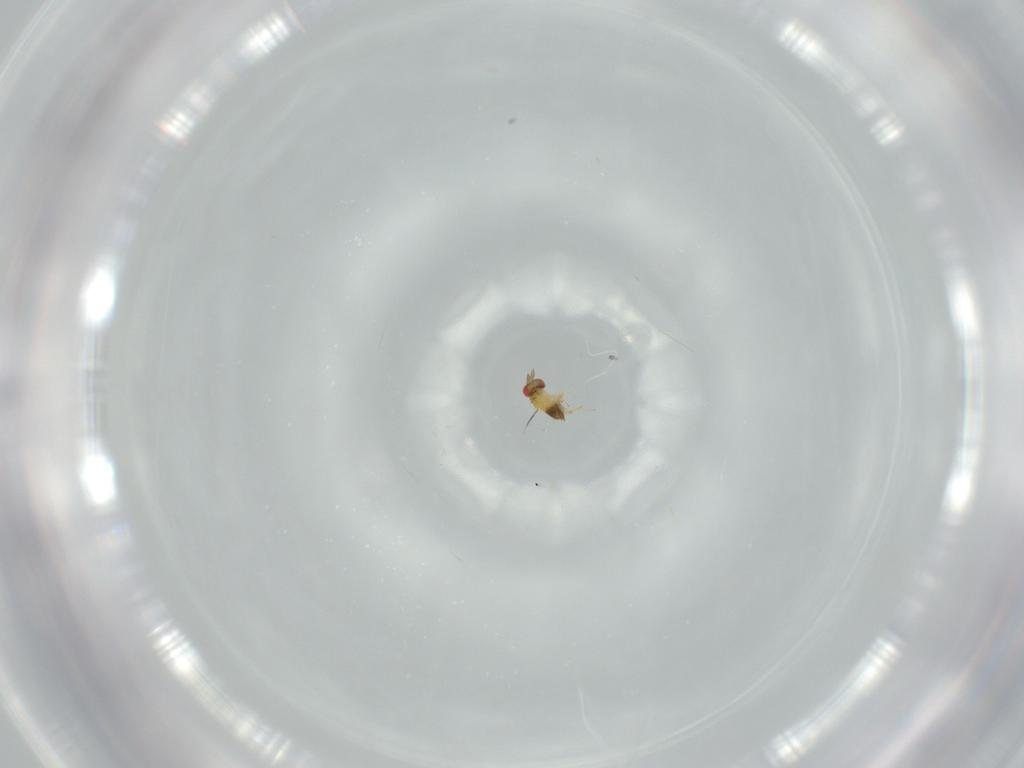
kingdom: Animalia
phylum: Arthropoda
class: Insecta
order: Hymenoptera
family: Trichogrammatidae
